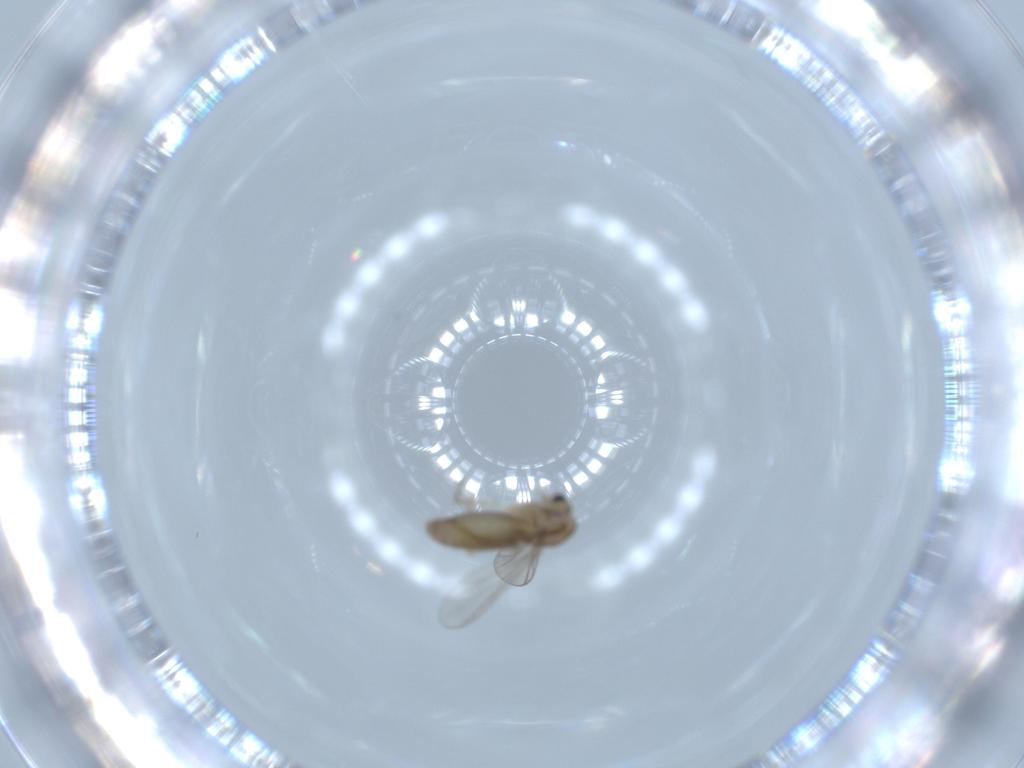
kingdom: Animalia
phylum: Arthropoda
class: Insecta
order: Diptera
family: Chironomidae
